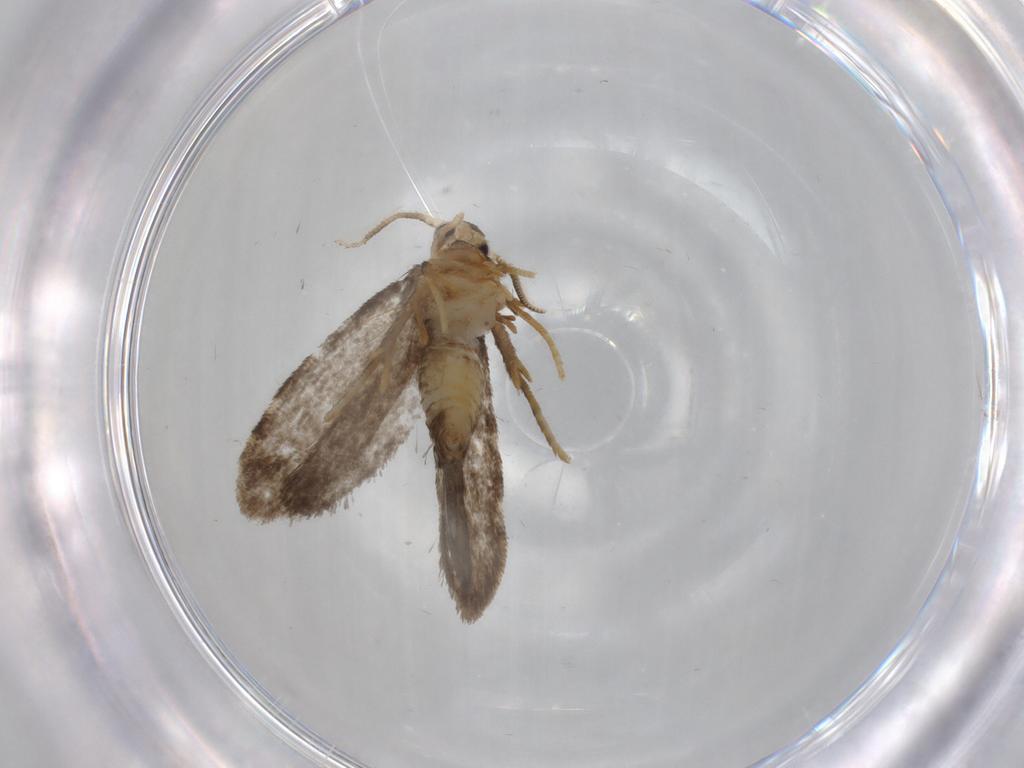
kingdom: Animalia
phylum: Arthropoda
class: Insecta
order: Lepidoptera
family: Psychidae
